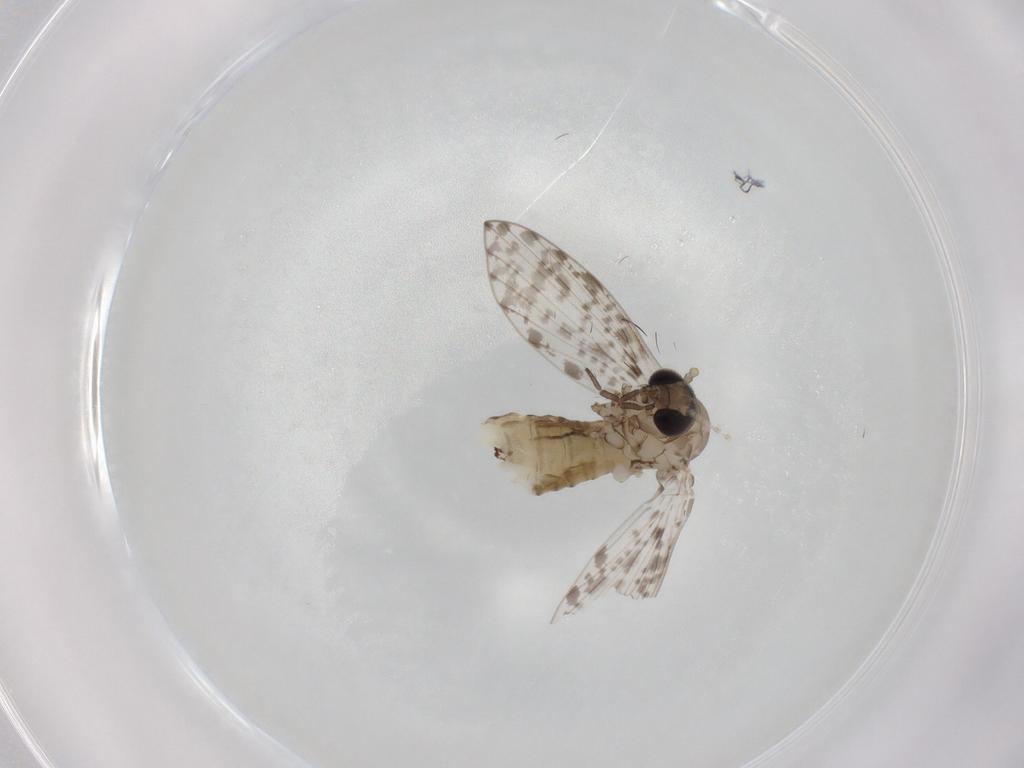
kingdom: Animalia
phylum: Arthropoda
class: Insecta
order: Diptera
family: Psychodidae
